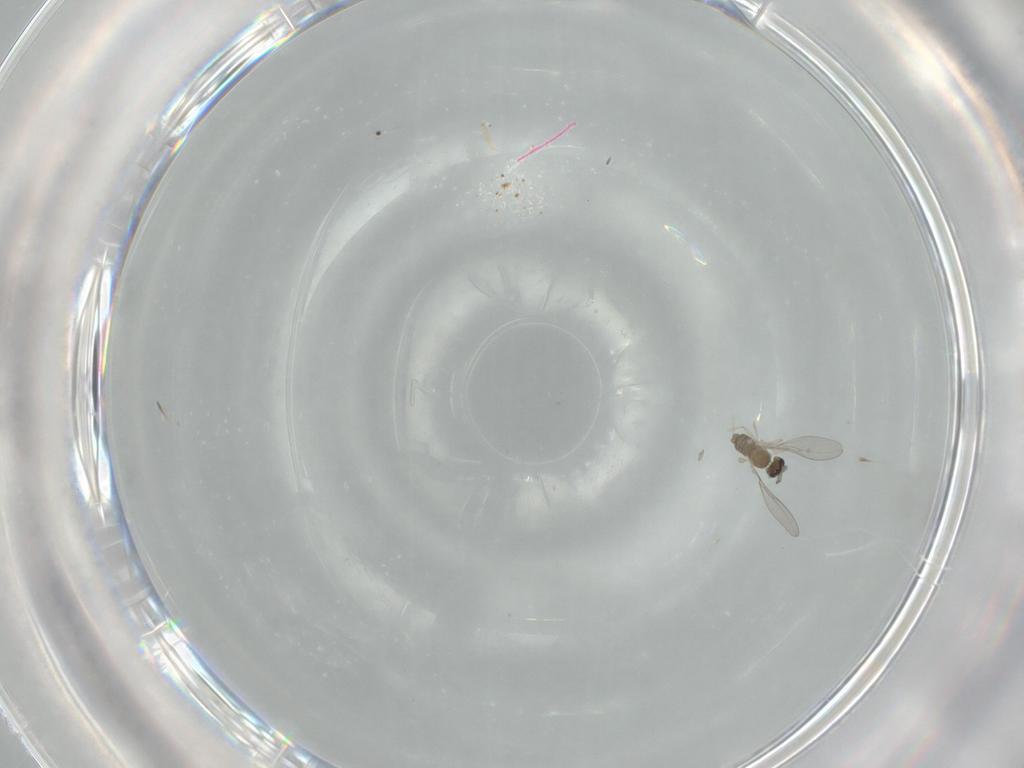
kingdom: Animalia
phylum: Arthropoda
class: Insecta
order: Diptera
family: Cecidomyiidae
